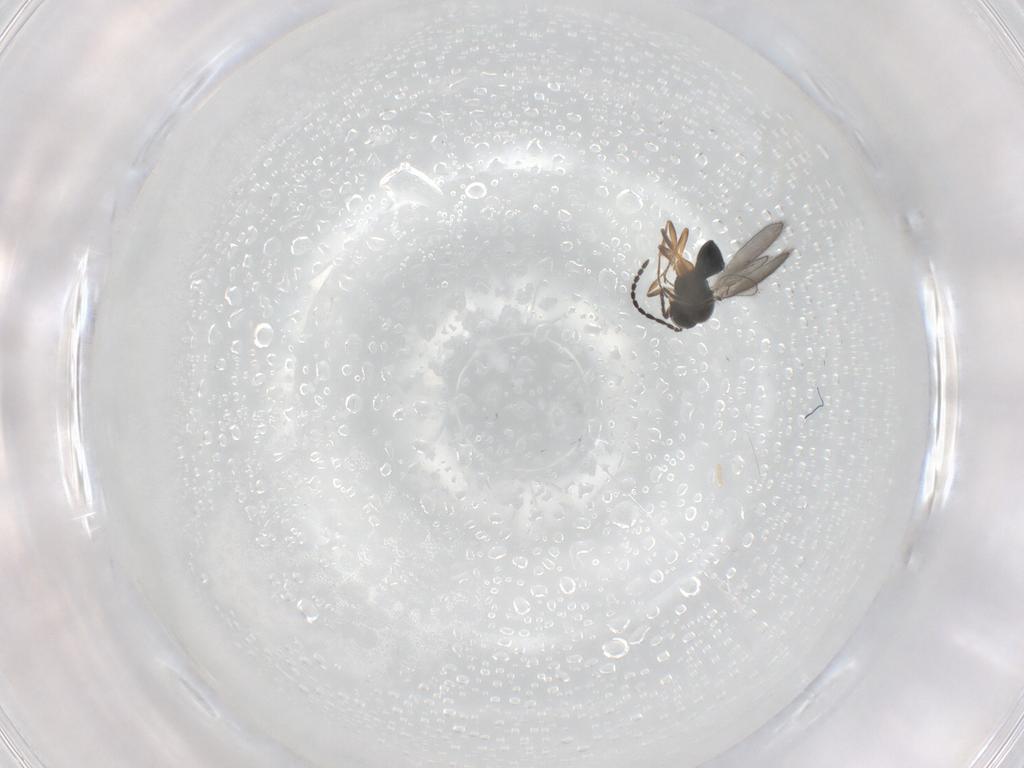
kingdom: Animalia
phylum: Arthropoda
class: Insecta
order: Hymenoptera
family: Scelionidae
